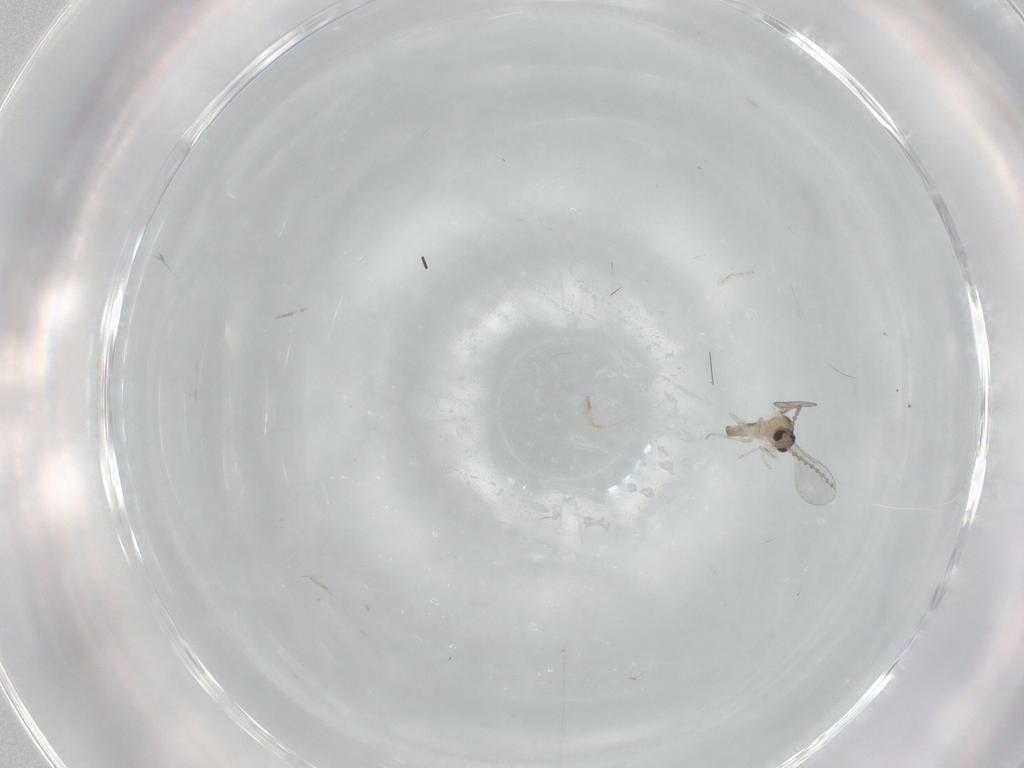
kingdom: Animalia
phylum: Arthropoda
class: Insecta
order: Diptera
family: Cecidomyiidae
